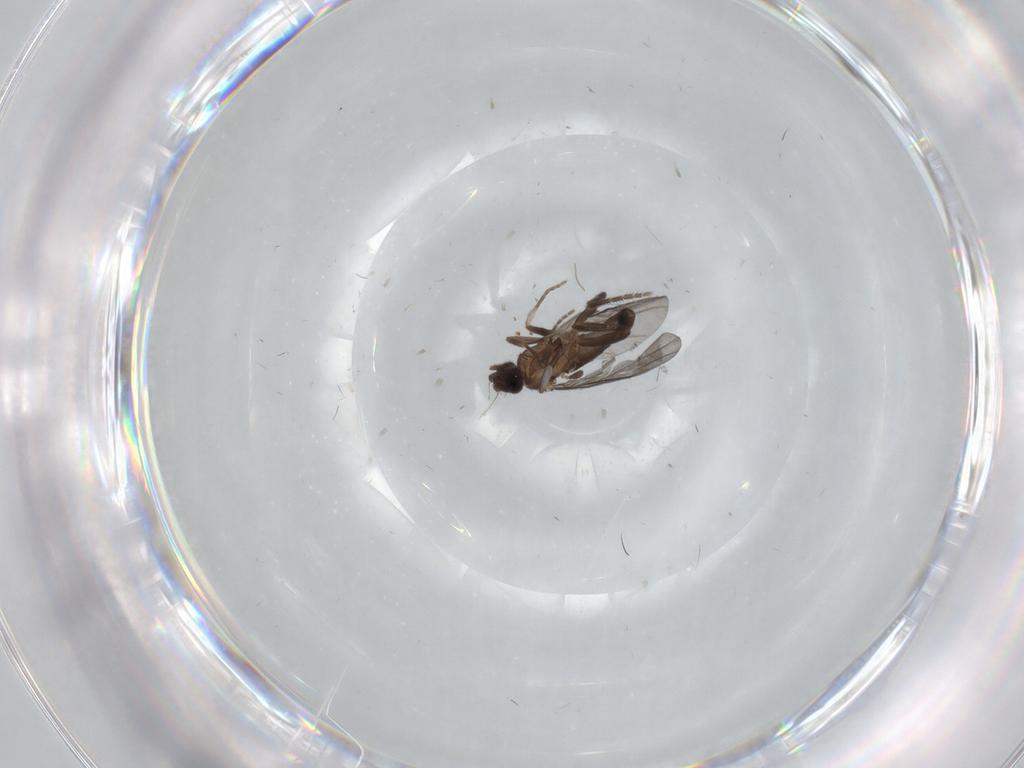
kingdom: Animalia
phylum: Arthropoda
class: Insecta
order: Diptera
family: Phoridae
